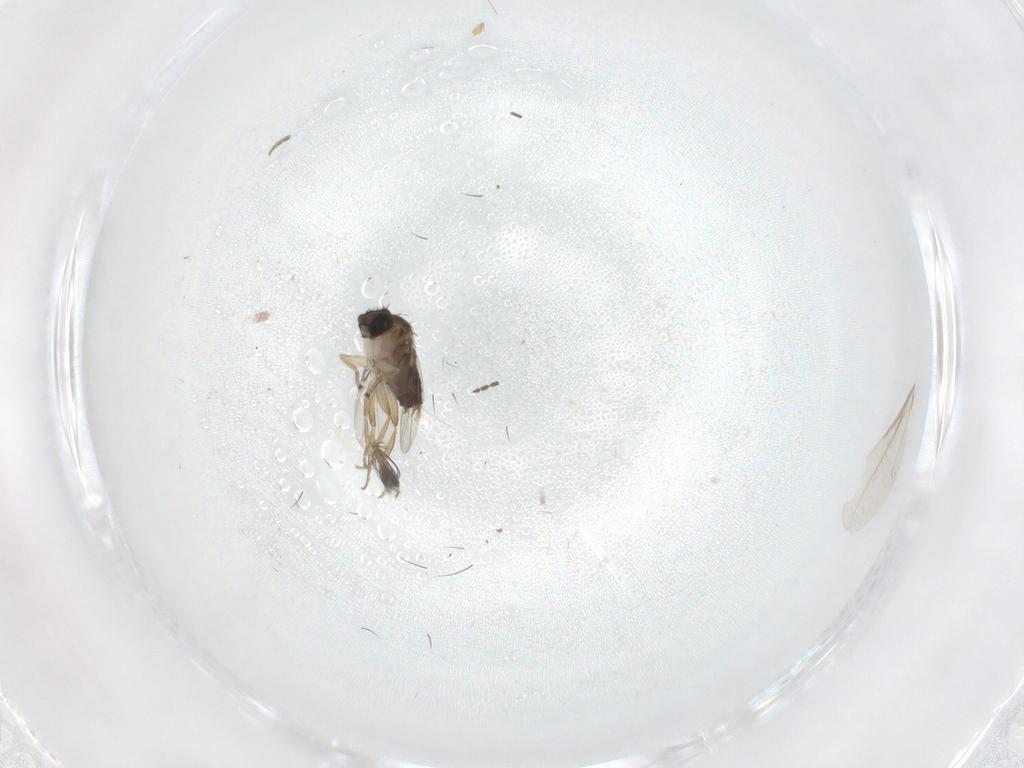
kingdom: Animalia
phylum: Arthropoda
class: Insecta
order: Diptera
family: Phoridae
